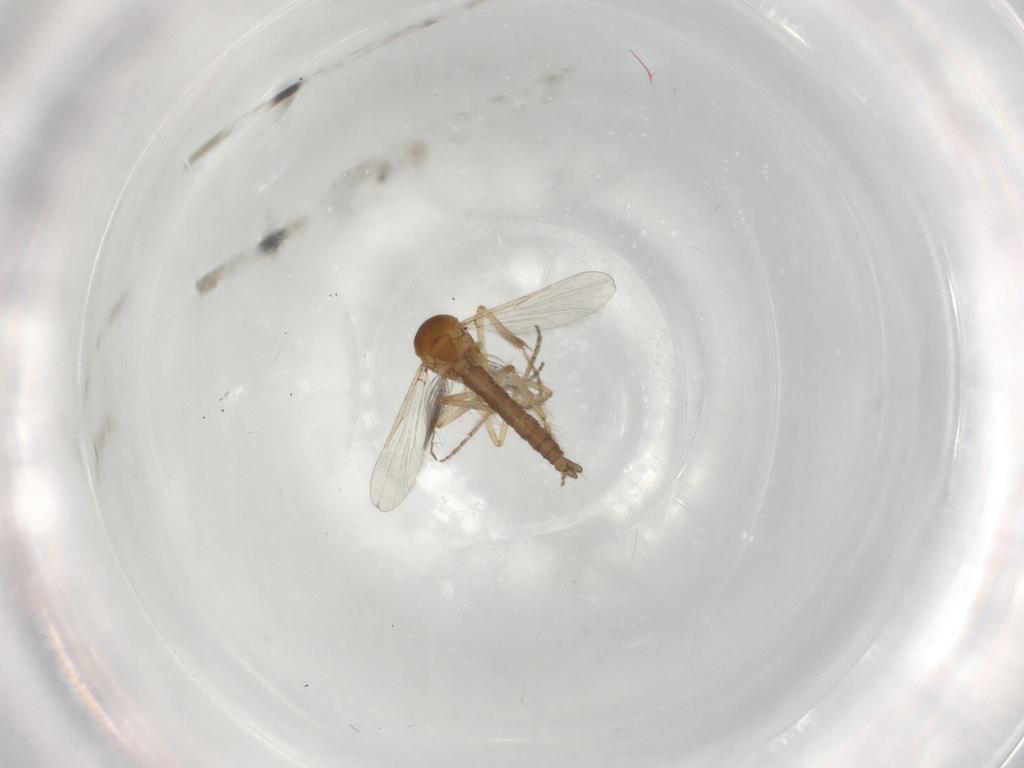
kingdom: Animalia
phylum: Arthropoda
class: Insecta
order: Diptera
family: Ceratopogonidae
